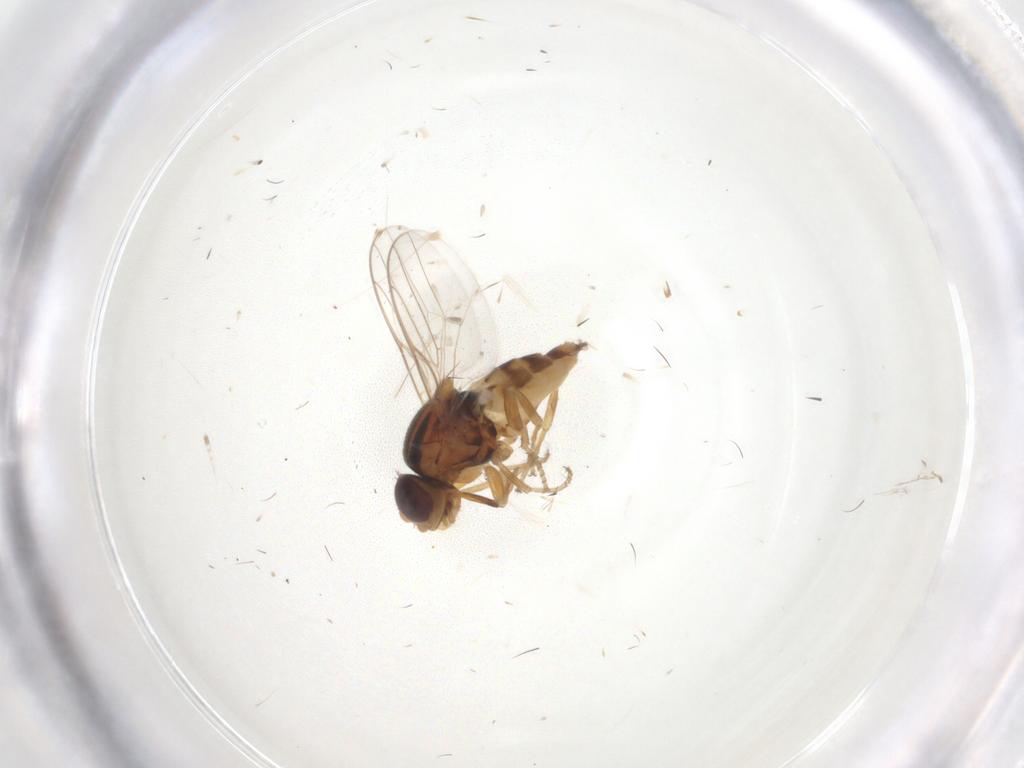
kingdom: Animalia
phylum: Arthropoda
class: Insecta
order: Diptera
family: Chloropidae
